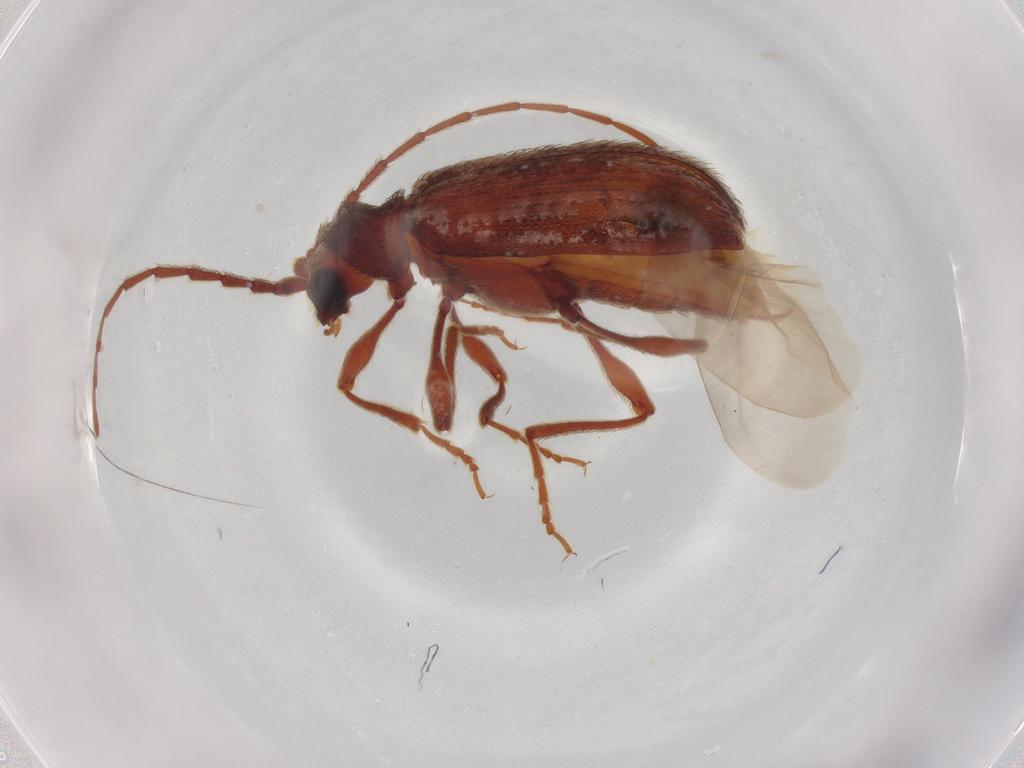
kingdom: Animalia
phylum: Arthropoda
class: Insecta
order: Coleoptera
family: Ptinidae
